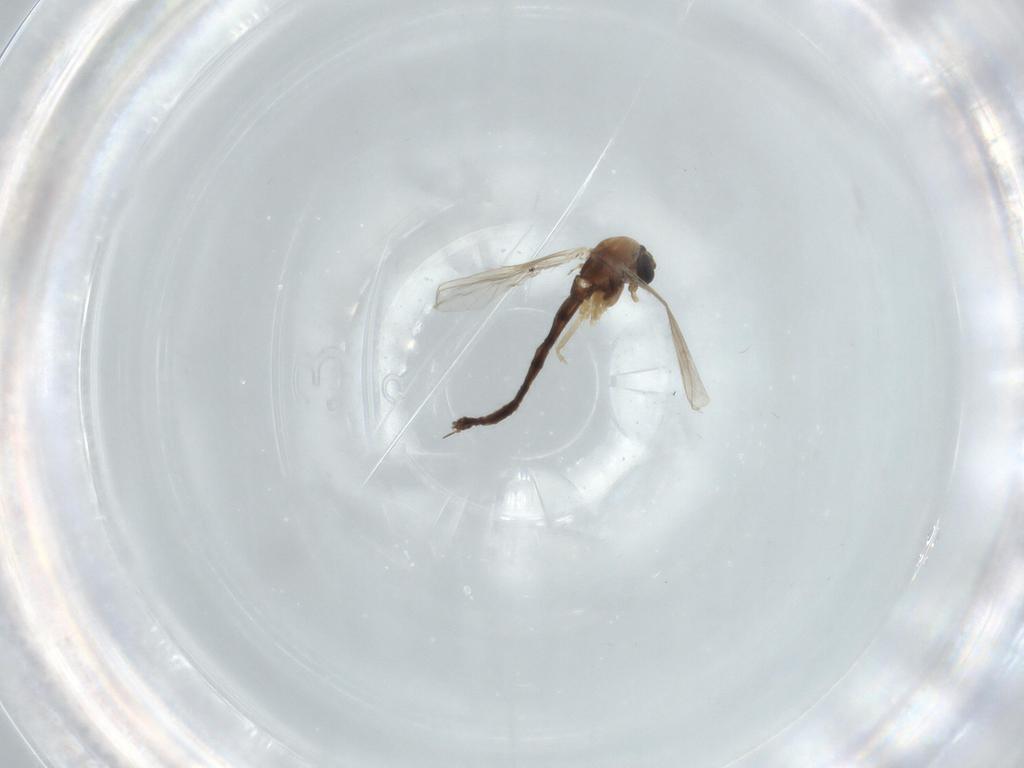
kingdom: Animalia
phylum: Arthropoda
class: Insecta
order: Diptera
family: Chironomidae
